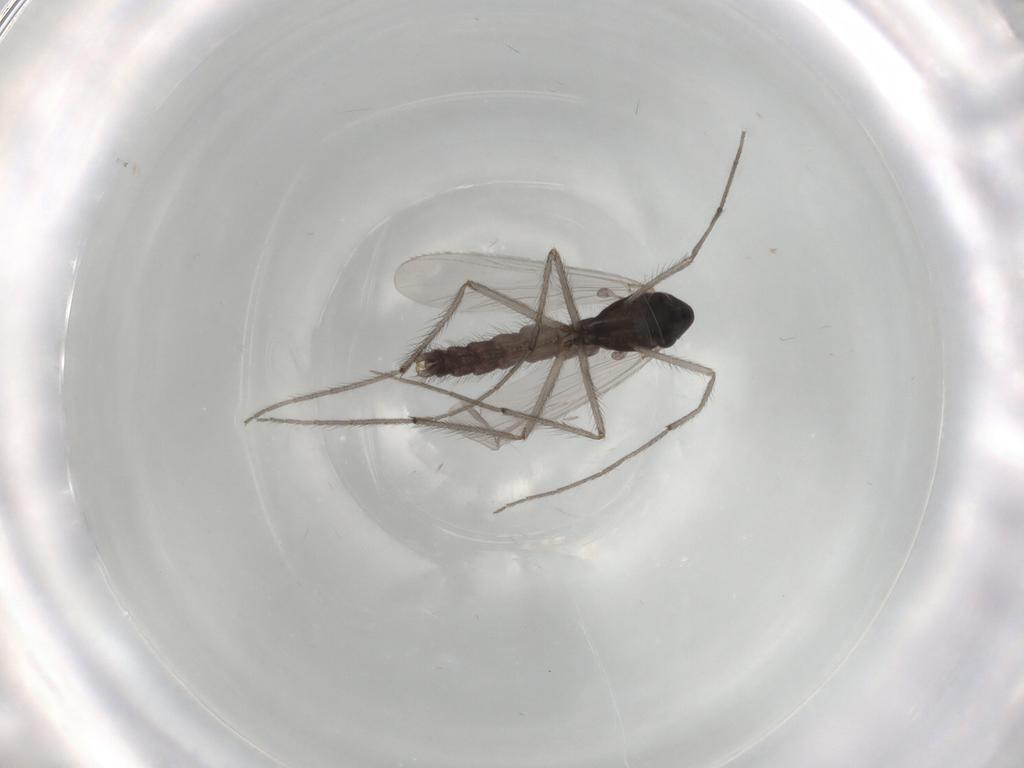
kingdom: Animalia
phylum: Arthropoda
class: Insecta
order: Diptera
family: Chironomidae
